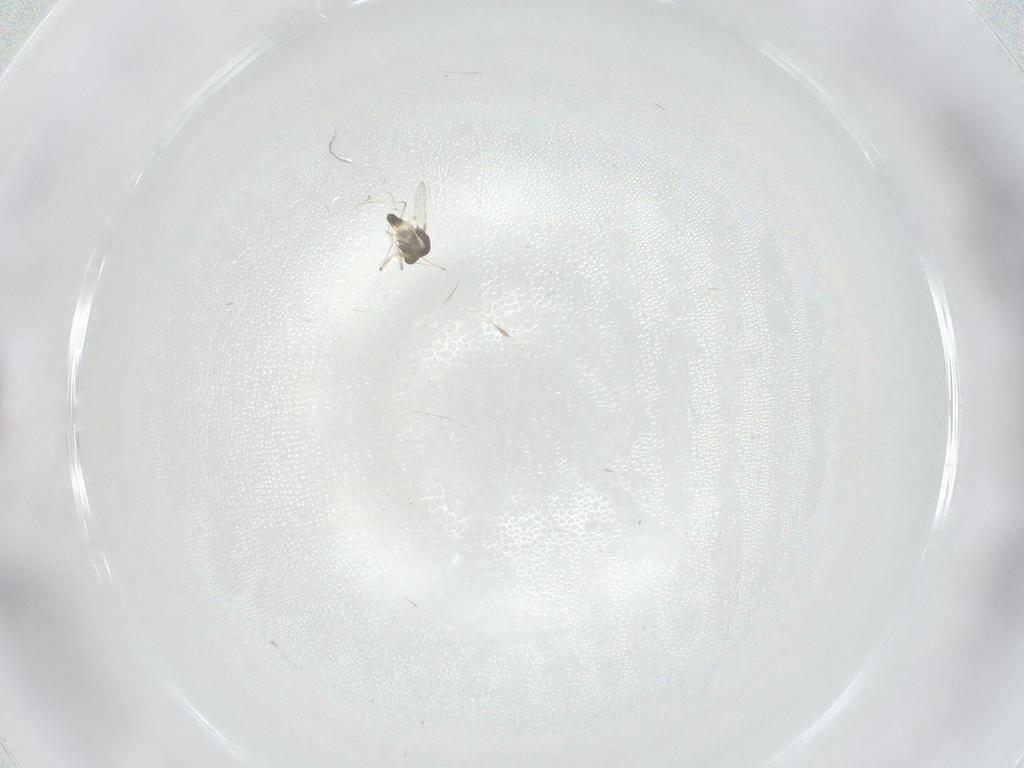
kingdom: Animalia
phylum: Arthropoda
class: Insecta
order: Diptera
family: Chironomidae
